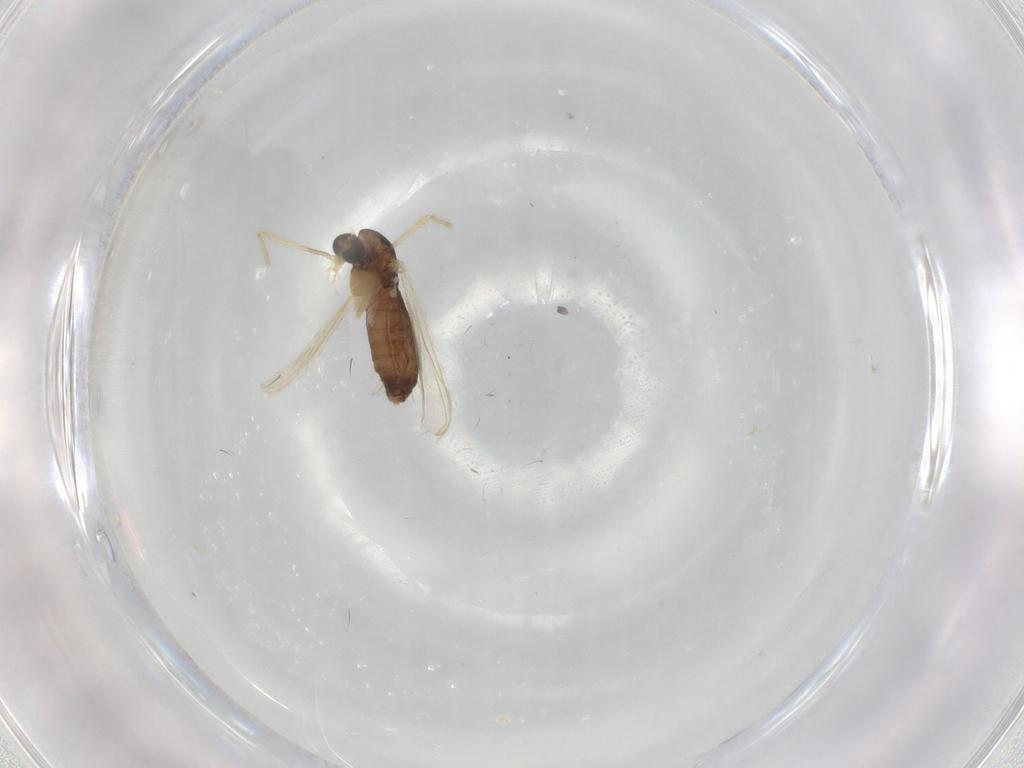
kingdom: Animalia
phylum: Arthropoda
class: Insecta
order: Diptera
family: Chironomidae
